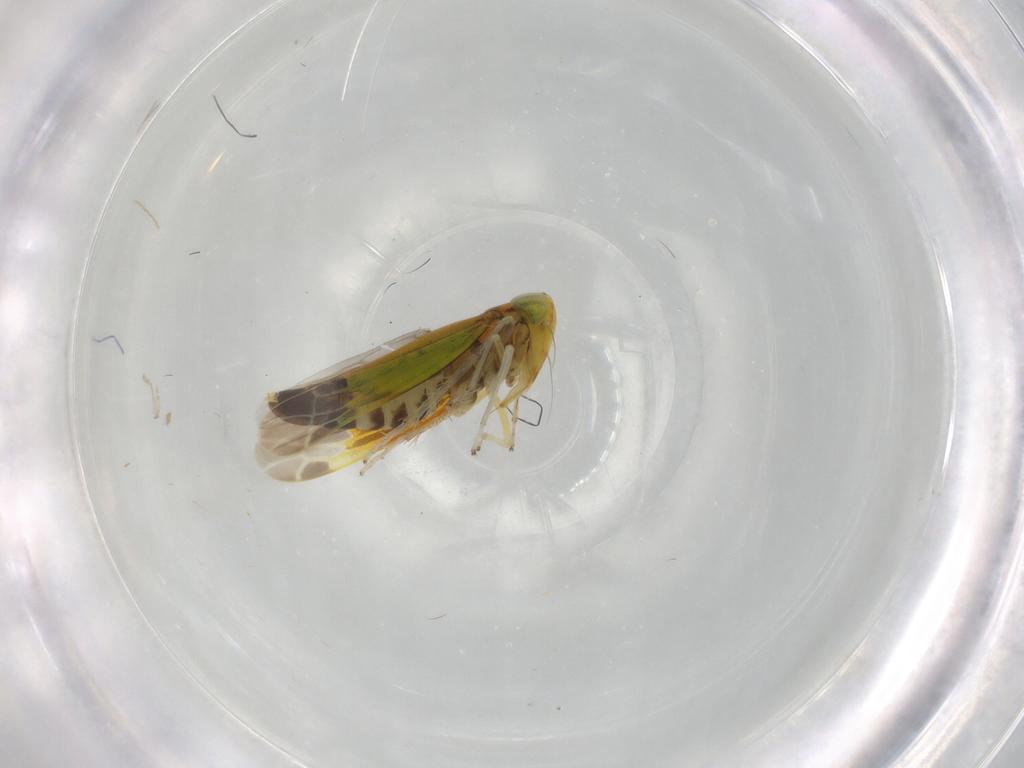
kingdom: Animalia
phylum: Arthropoda
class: Insecta
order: Hemiptera
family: Cicadellidae
